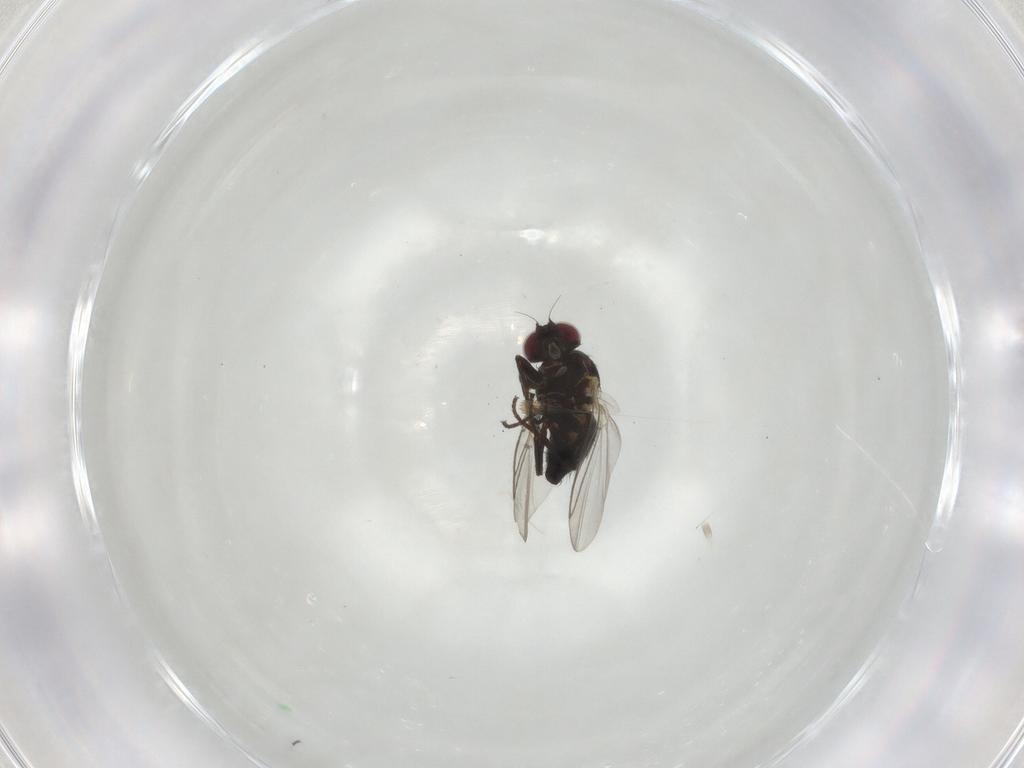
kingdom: Animalia
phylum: Arthropoda
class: Insecta
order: Diptera
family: Agromyzidae
